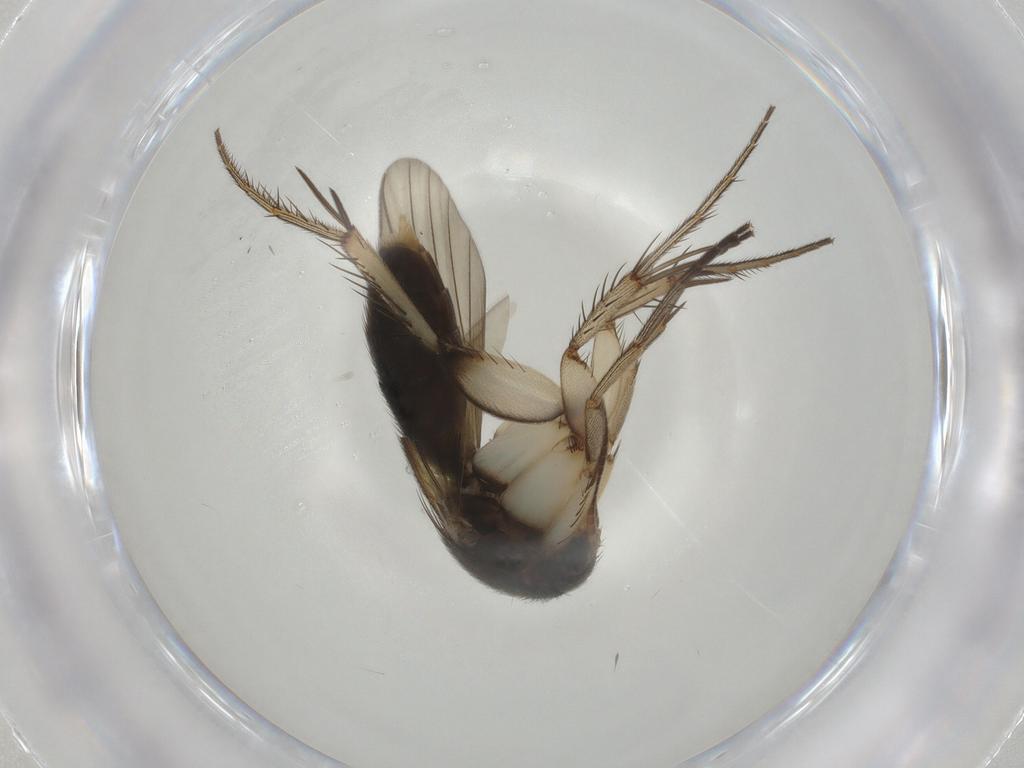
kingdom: Animalia
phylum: Arthropoda
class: Insecta
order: Diptera
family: Mycetophilidae
